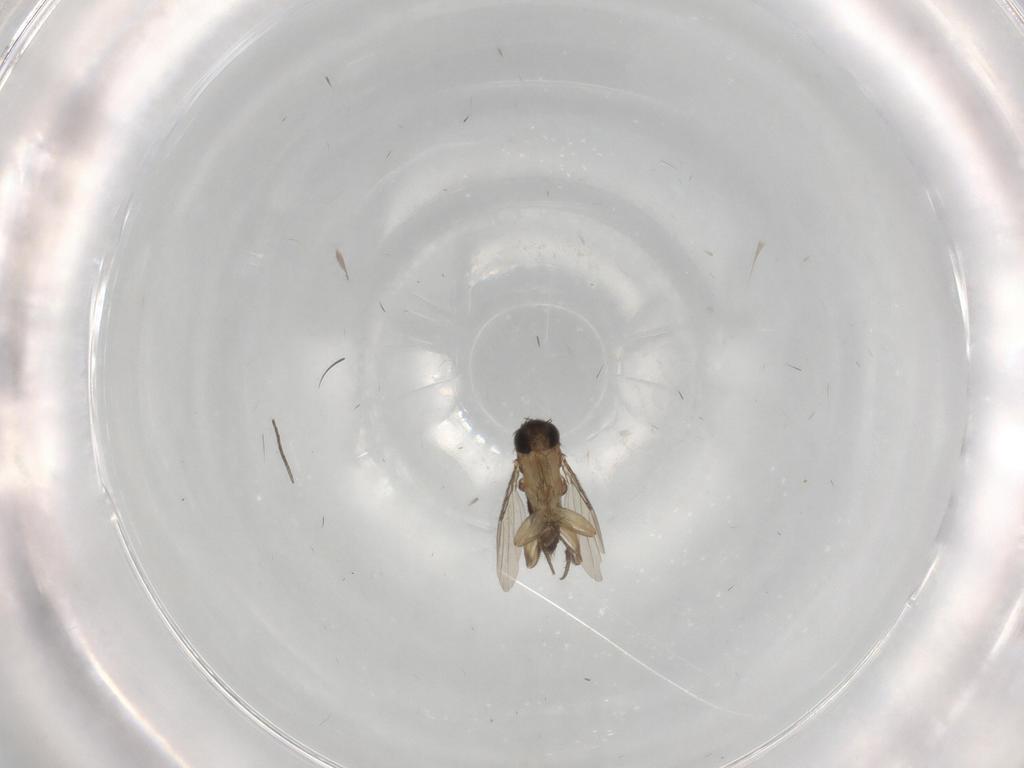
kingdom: Animalia
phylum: Arthropoda
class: Insecta
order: Diptera
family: Phoridae
